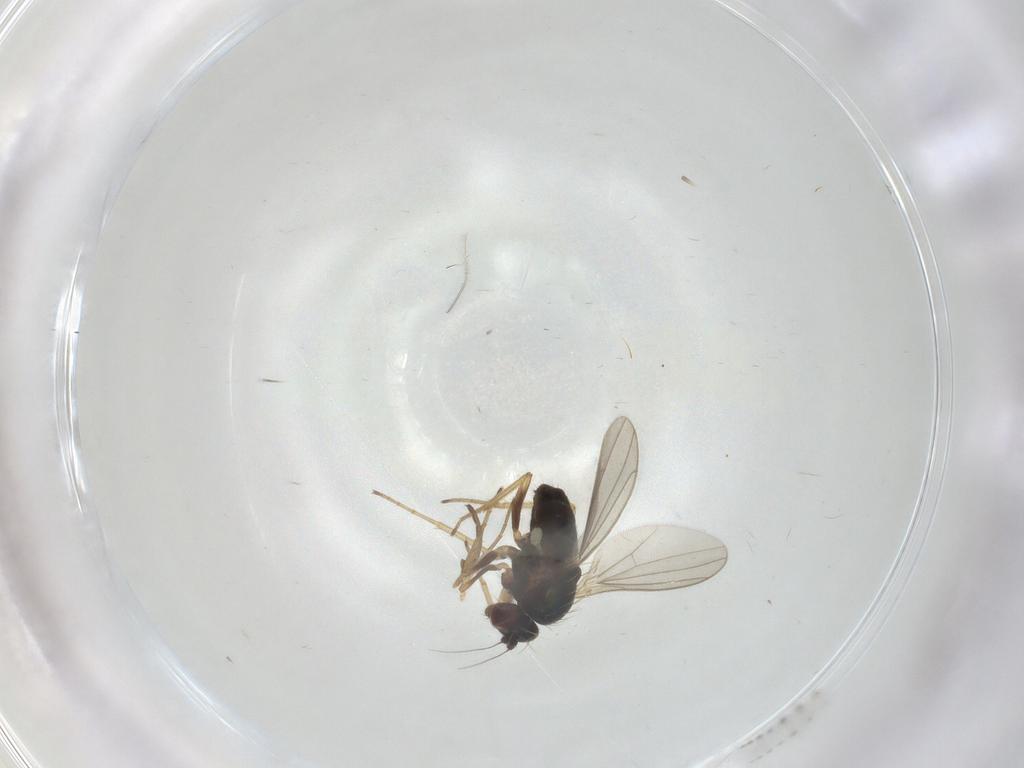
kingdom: Animalia
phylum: Arthropoda
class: Insecta
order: Diptera
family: Dolichopodidae
